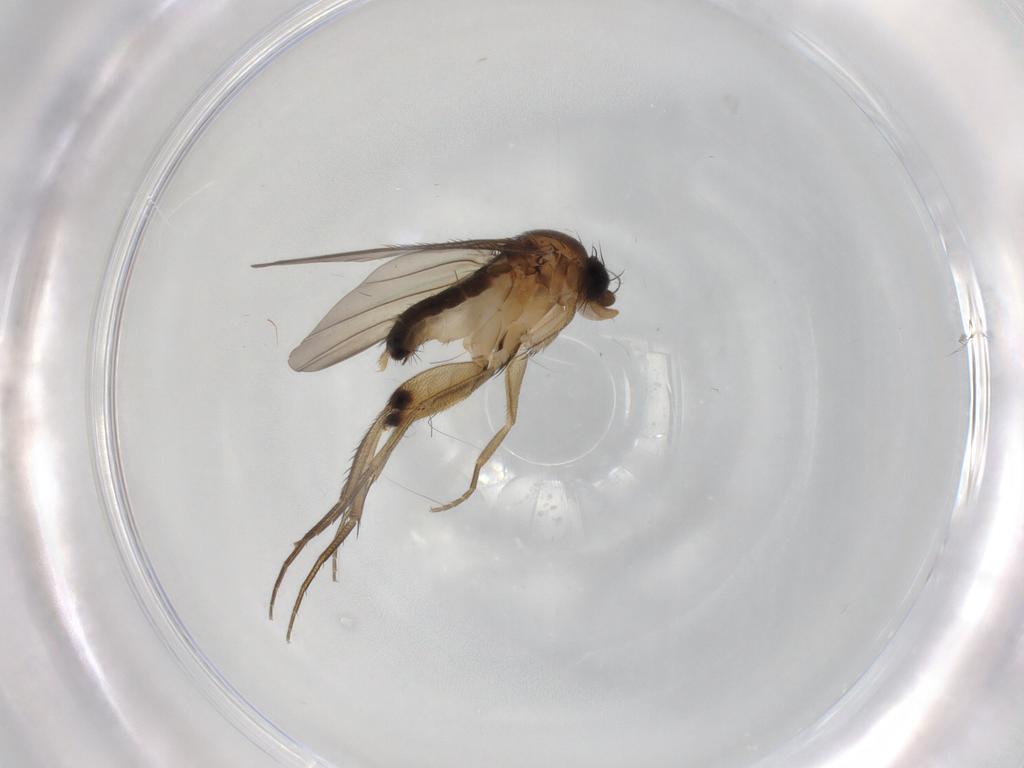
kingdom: Animalia
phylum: Arthropoda
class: Insecta
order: Diptera
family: Phoridae
